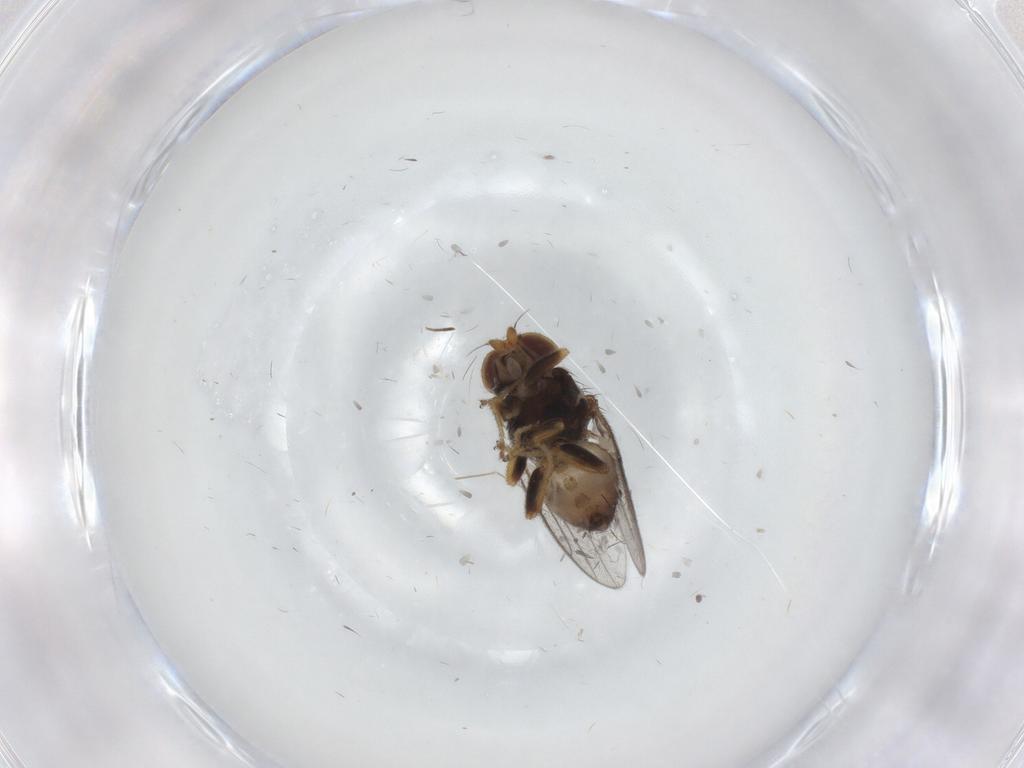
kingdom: Animalia
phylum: Arthropoda
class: Insecta
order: Diptera
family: Chloropidae
